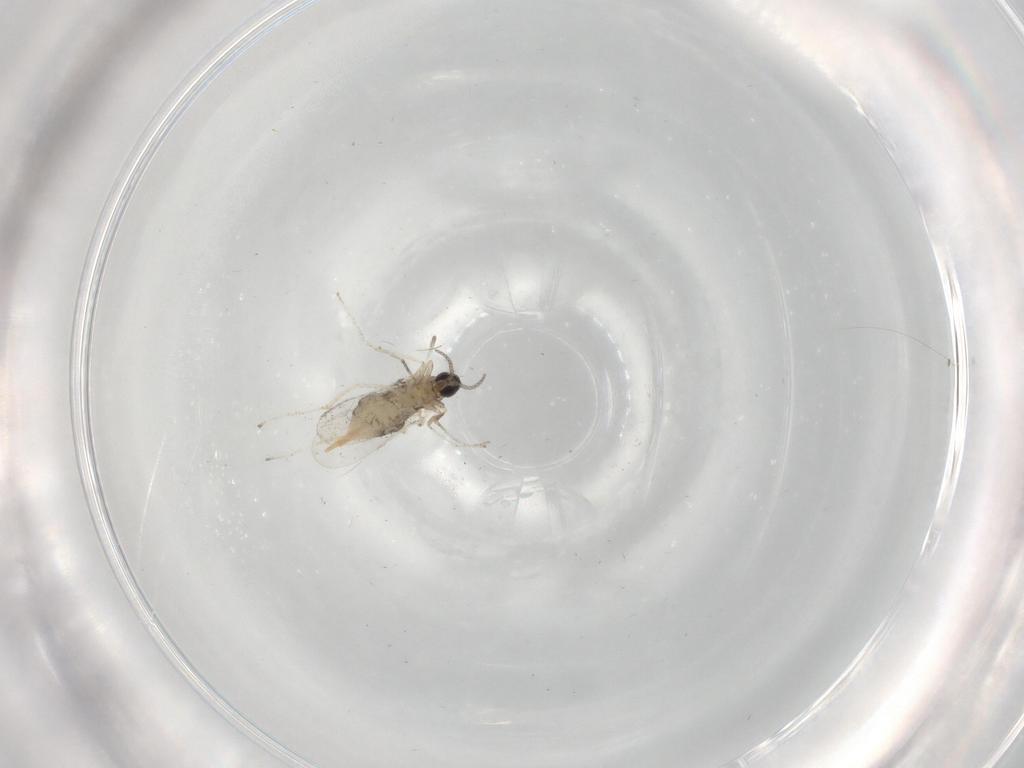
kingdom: Animalia
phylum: Arthropoda
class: Insecta
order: Diptera
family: Cecidomyiidae
